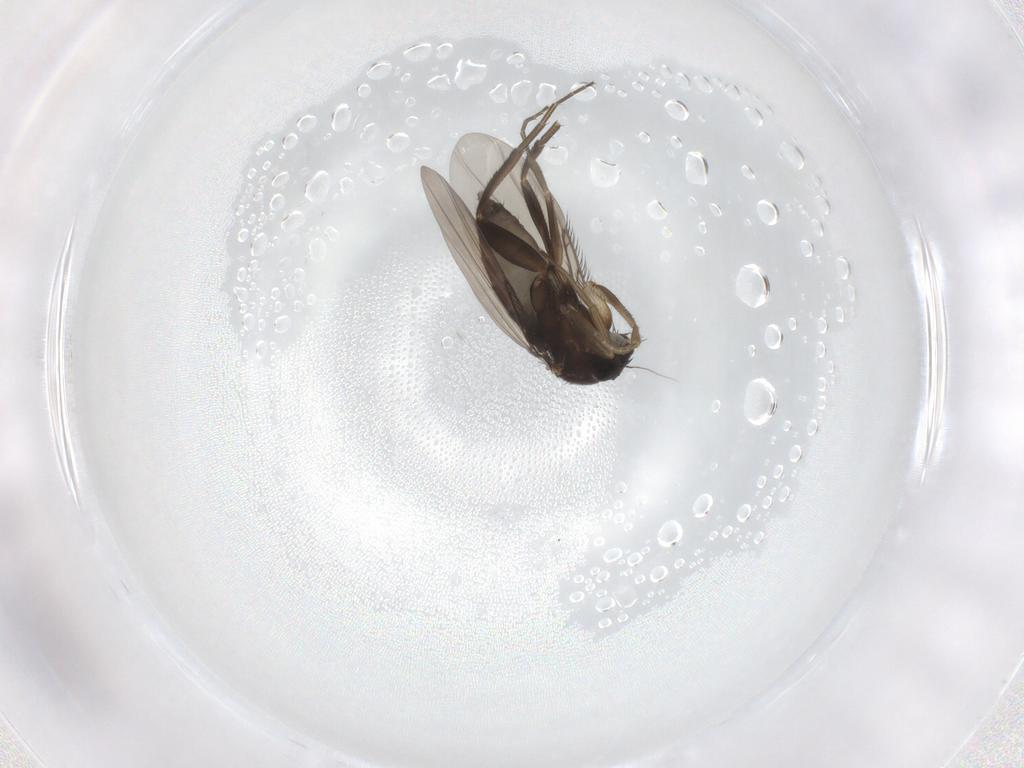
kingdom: Animalia
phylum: Arthropoda
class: Insecta
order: Diptera
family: Phoridae
